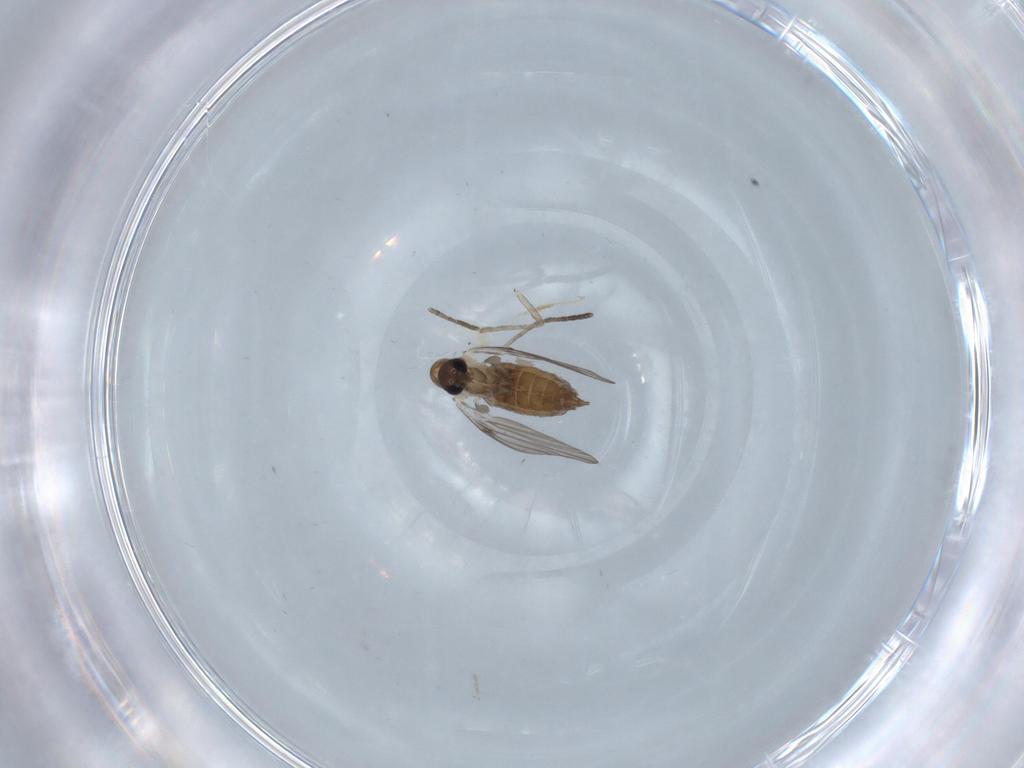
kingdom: Animalia
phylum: Arthropoda
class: Insecta
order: Diptera
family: Psychodidae
